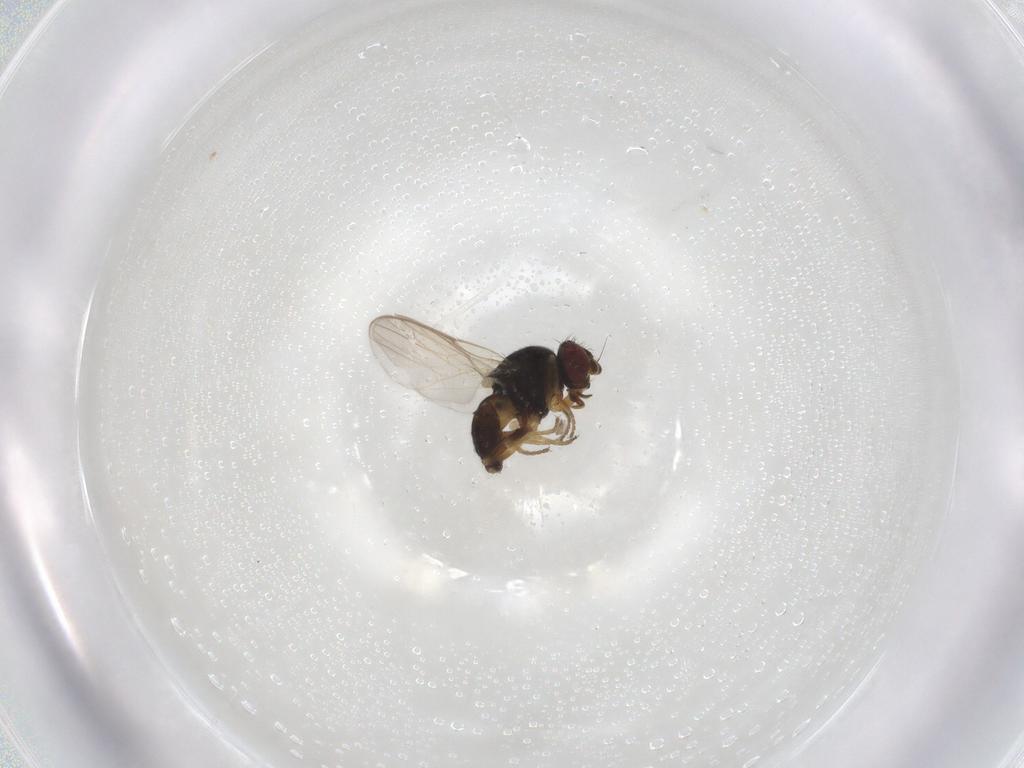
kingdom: Animalia
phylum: Arthropoda
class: Insecta
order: Diptera
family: Chloropidae
